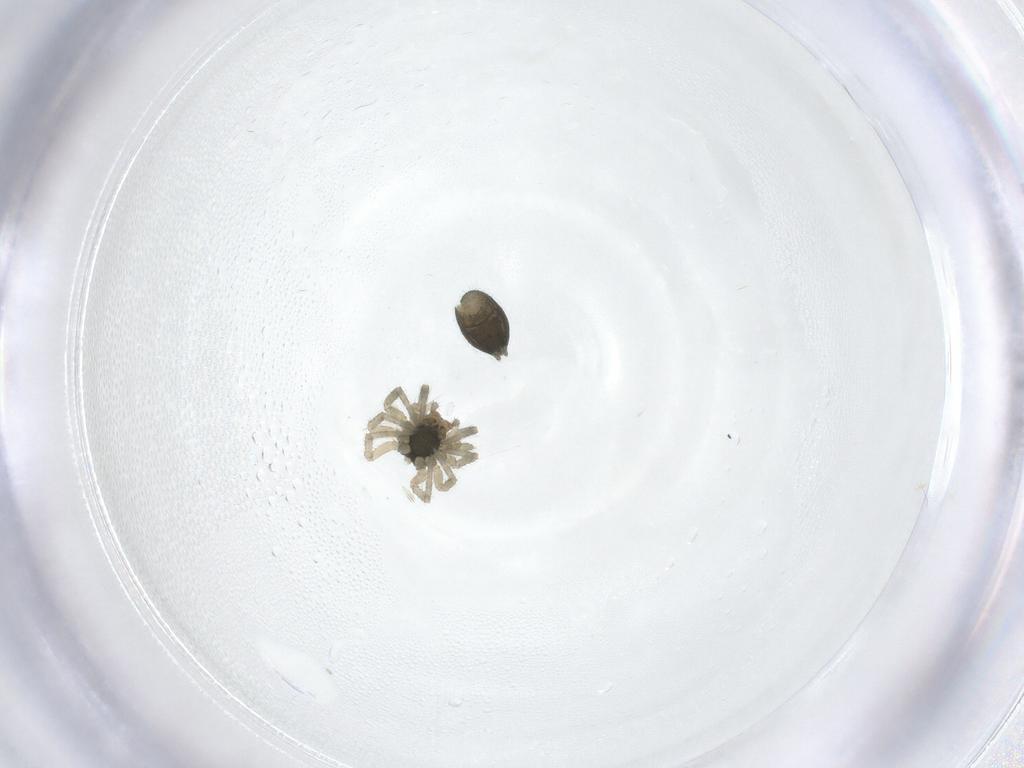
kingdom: Animalia
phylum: Arthropoda
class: Arachnida
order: Araneae
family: Linyphiidae
